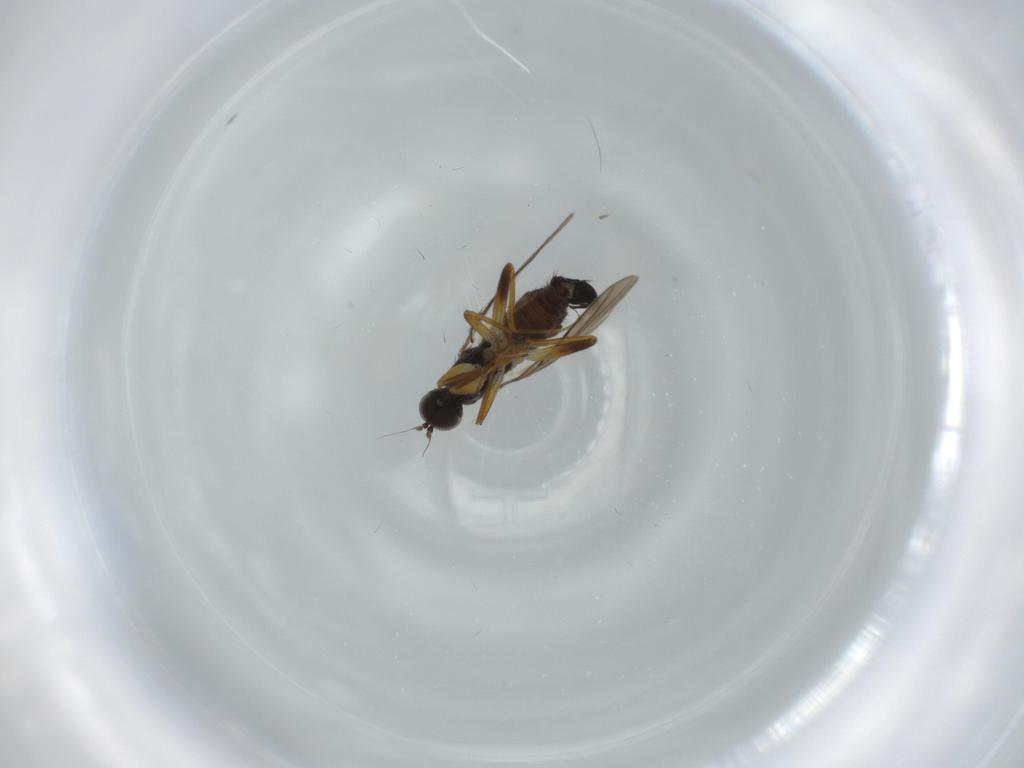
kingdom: Animalia
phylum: Arthropoda
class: Insecta
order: Diptera
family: Hybotidae
